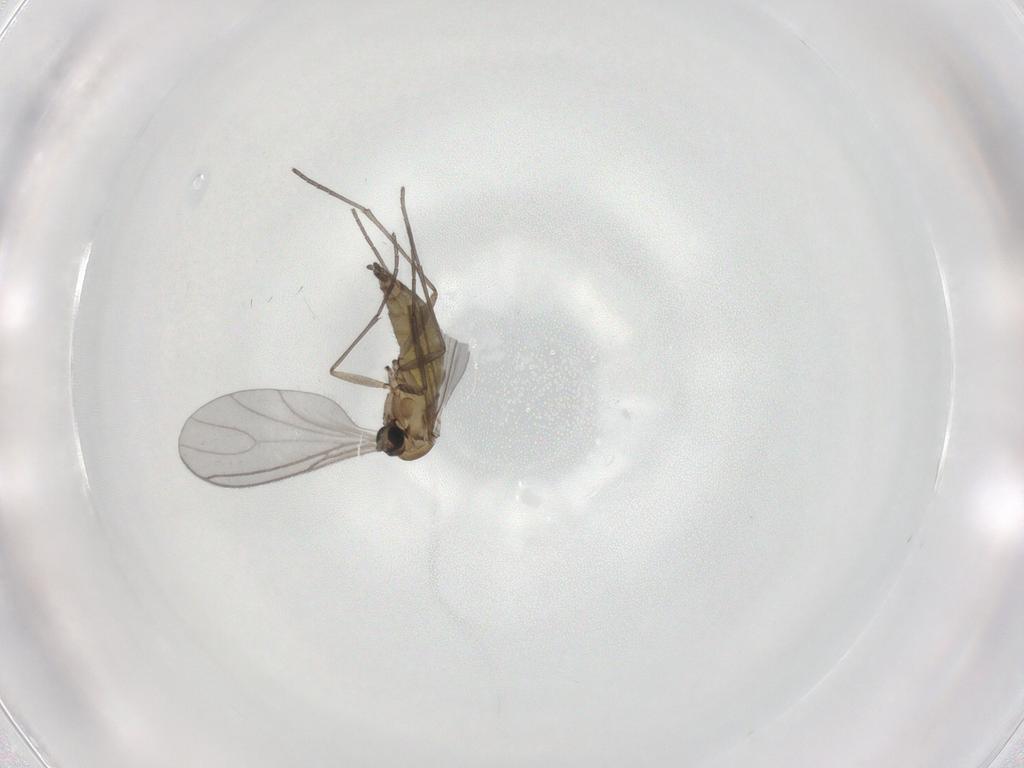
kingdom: Animalia
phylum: Arthropoda
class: Insecta
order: Diptera
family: Sciaridae
